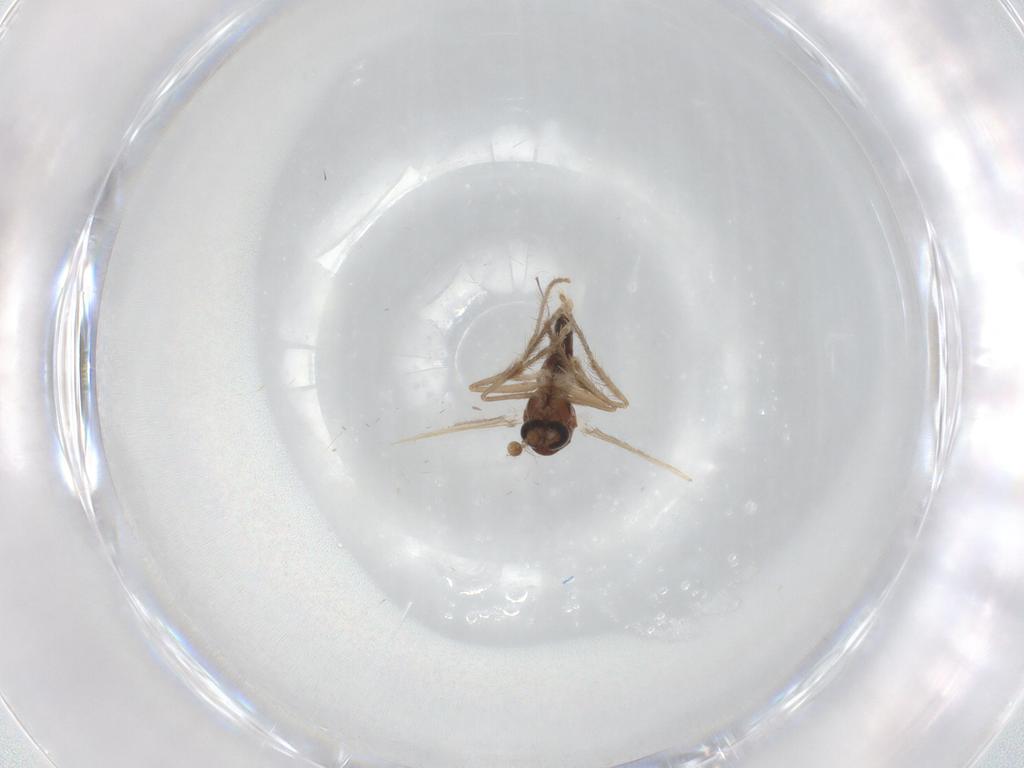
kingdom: Animalia
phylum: Arthropoda
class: Insecta
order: Diptera
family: Corethrellidae
